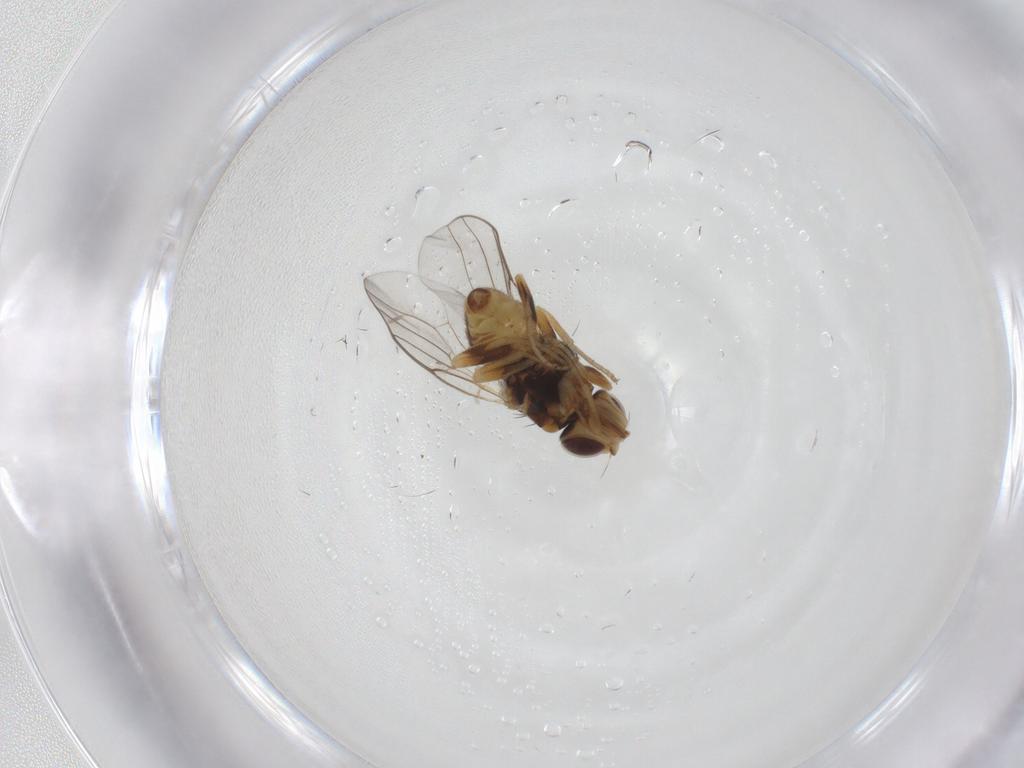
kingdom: Animalia
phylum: Arthropoda
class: Insecta
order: Diptera
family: Chloropidae
